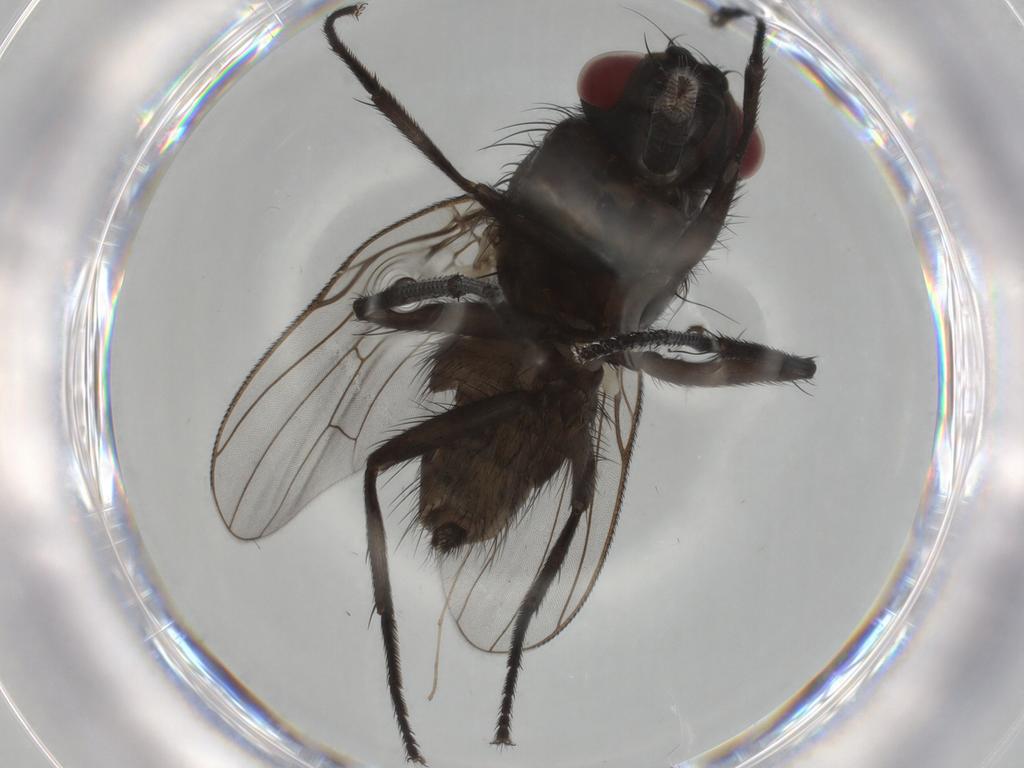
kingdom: Animalia
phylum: Arthropoda
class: Insecta
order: Diptera
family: Muscidae
